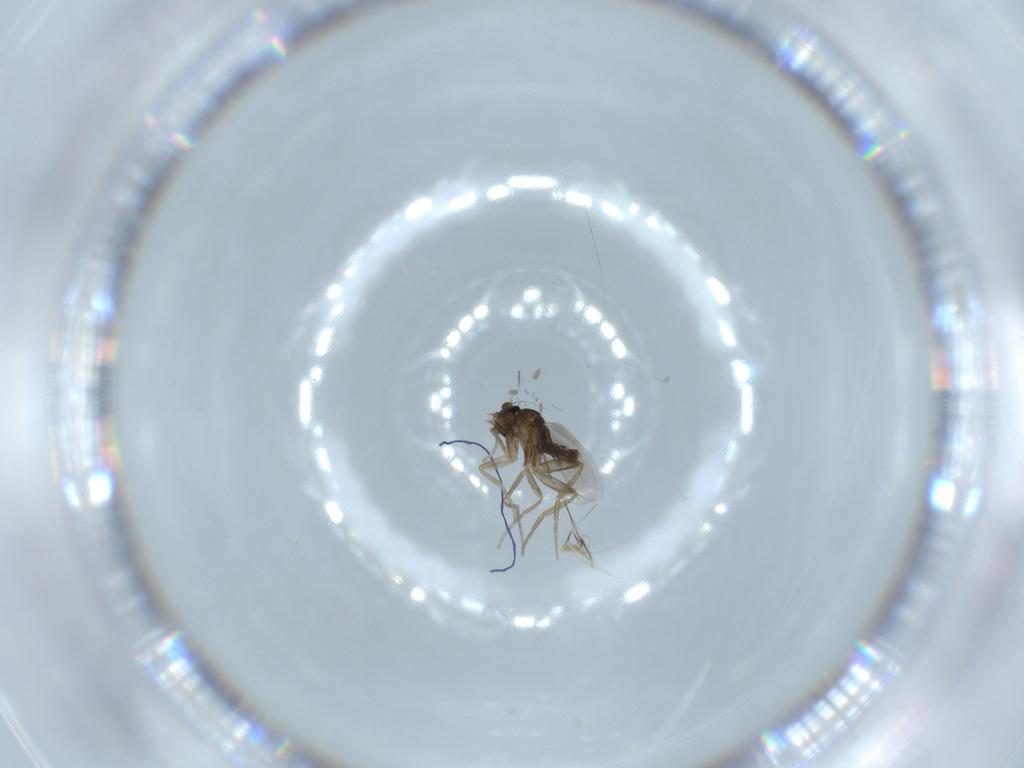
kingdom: Animalia
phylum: Arthropoda
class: Insecta
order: Diptera
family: Phoridae
